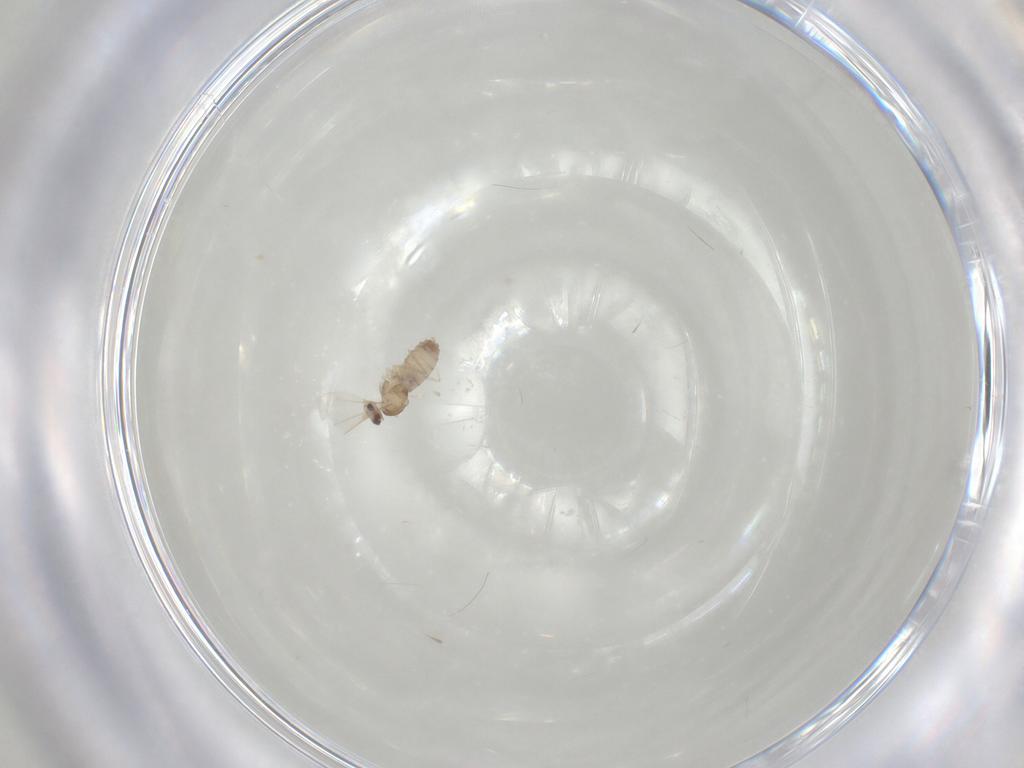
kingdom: Animalia
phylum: Arthropoda
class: Insecta
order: Diptera
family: Cecidomyiidae
